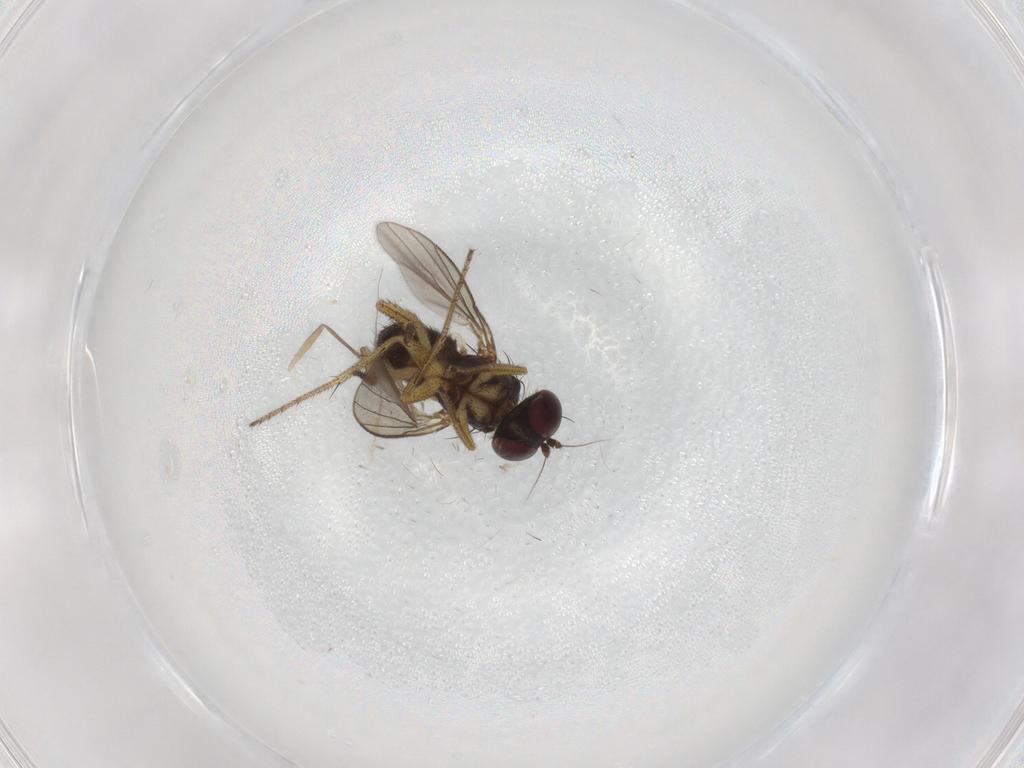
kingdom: Animalia
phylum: Arthropoda
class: Insecta
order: Diptera
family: Dolichopodidae
